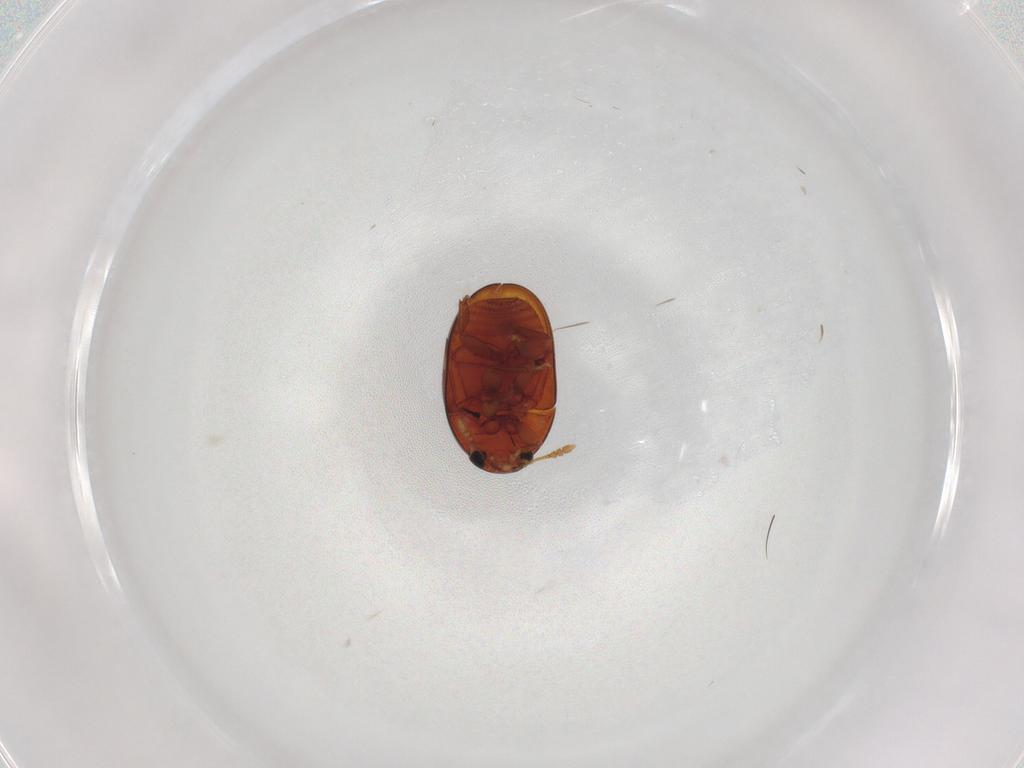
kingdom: Animalia
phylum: Arthropoda
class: Insecta
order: Coleoptera
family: Phalacridae
